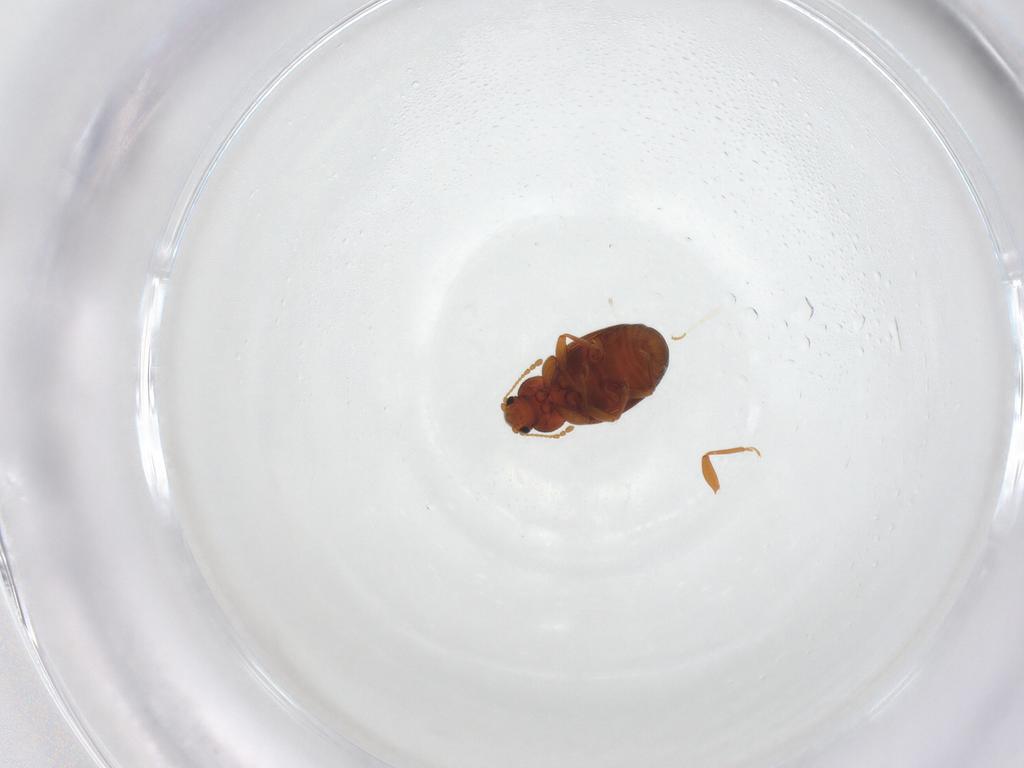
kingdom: Animalia
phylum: Arthropoda
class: Insecta
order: Coleoptera
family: Latridiidae
